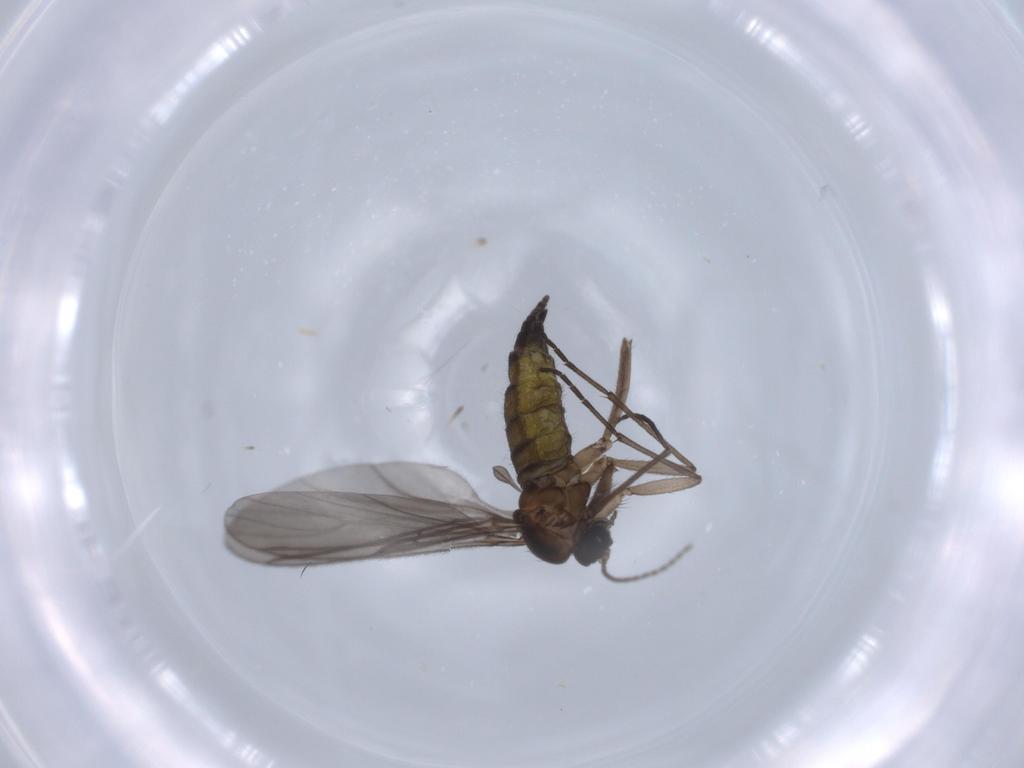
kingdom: Animalia
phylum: Arthropoda
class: Insecta
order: Diptera
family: Sciaridae
